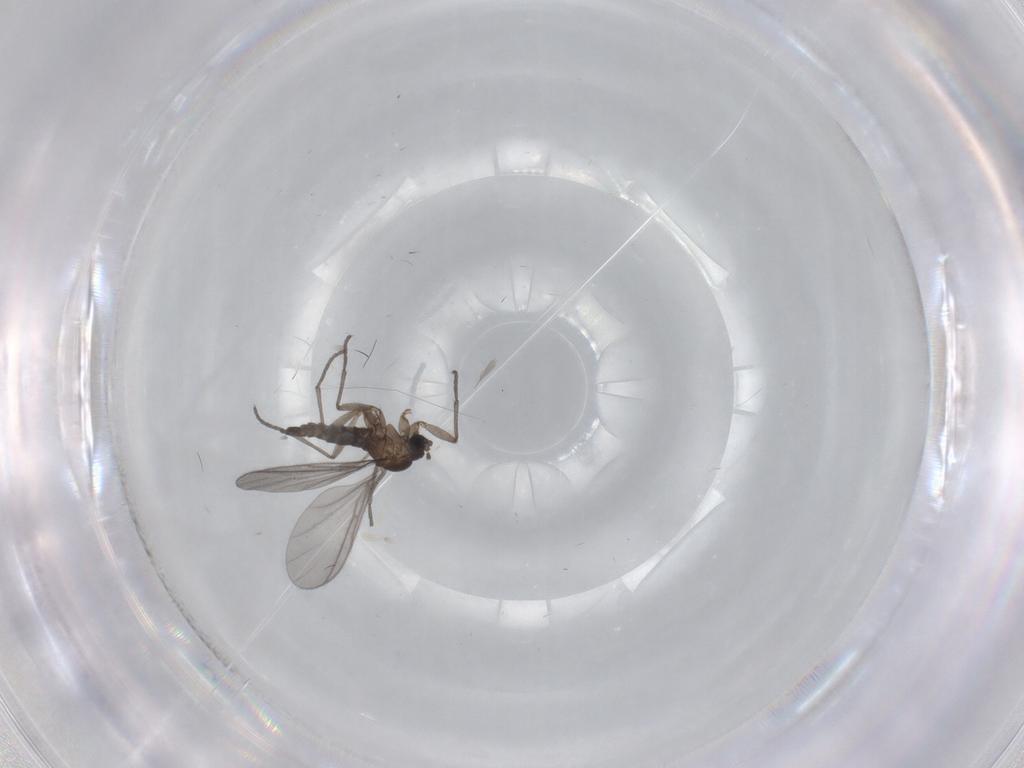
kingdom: Animalia
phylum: Arthropoda
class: Insecta
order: Diptera
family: Sciaridae
